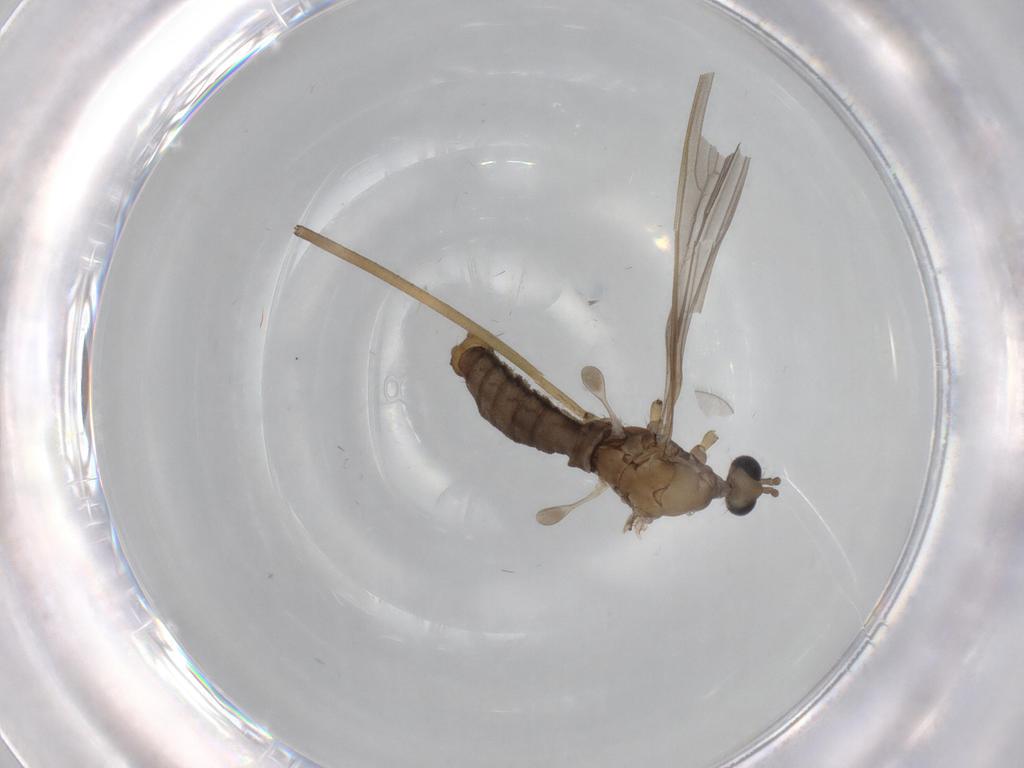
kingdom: Animalia
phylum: Arthropoda
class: Insecta
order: Diptera
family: Limoniidae
